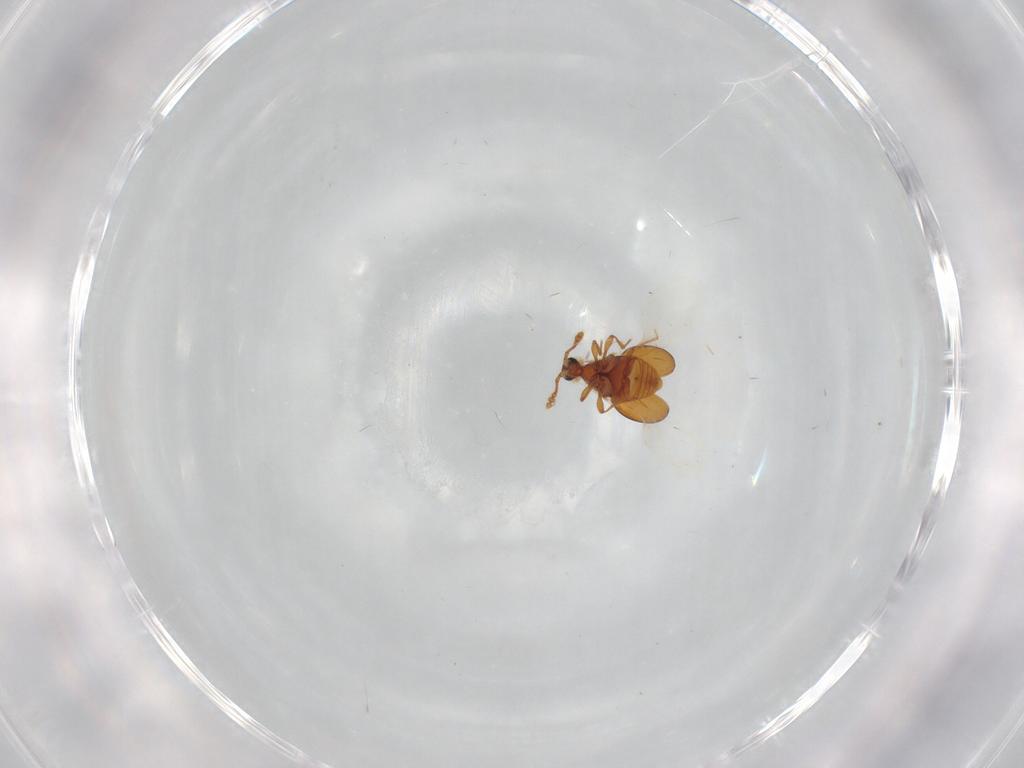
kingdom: Animalia
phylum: Arthropoda
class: Insecta
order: Coleoptera
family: Staphylinidae
